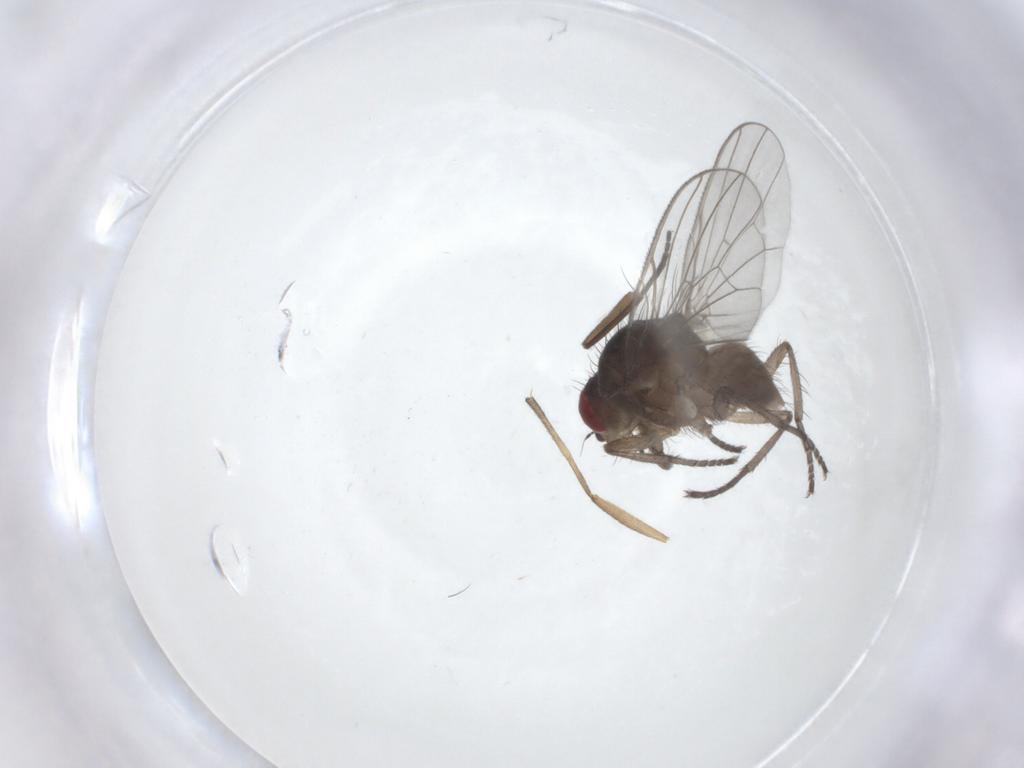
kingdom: Animalia
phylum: Arthropoda
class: Insecta
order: Diptera
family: Anthomyiidae
